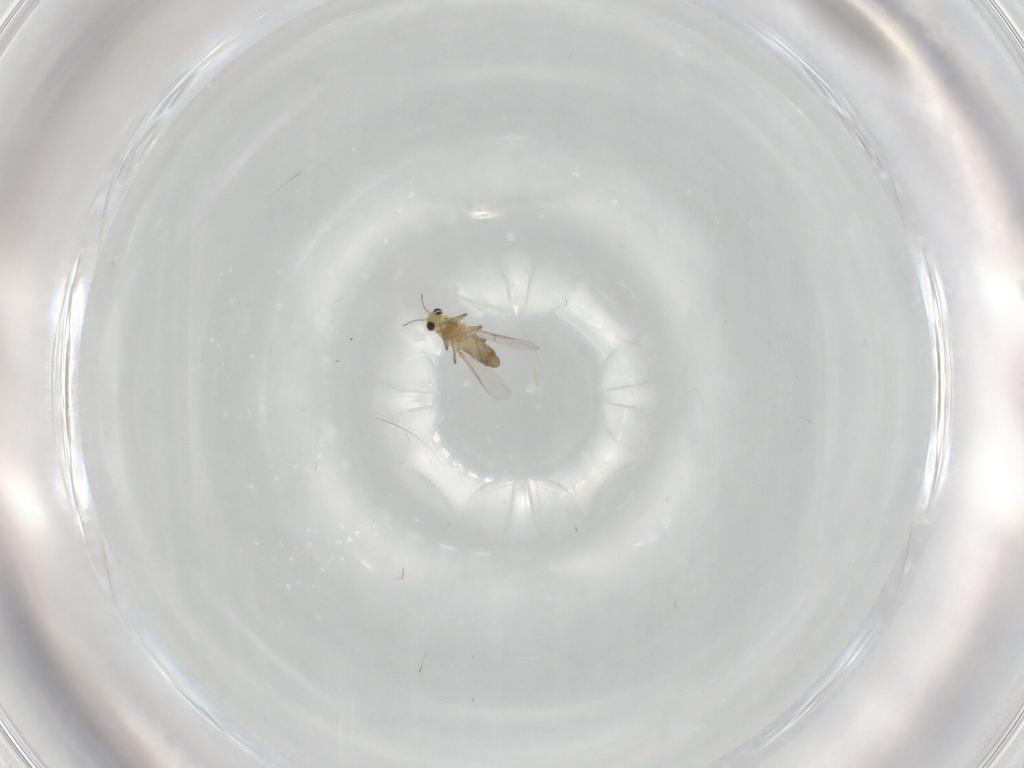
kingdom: Animalia
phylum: Arthropoda
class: Insecta
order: Diptera
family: Chironomidae
